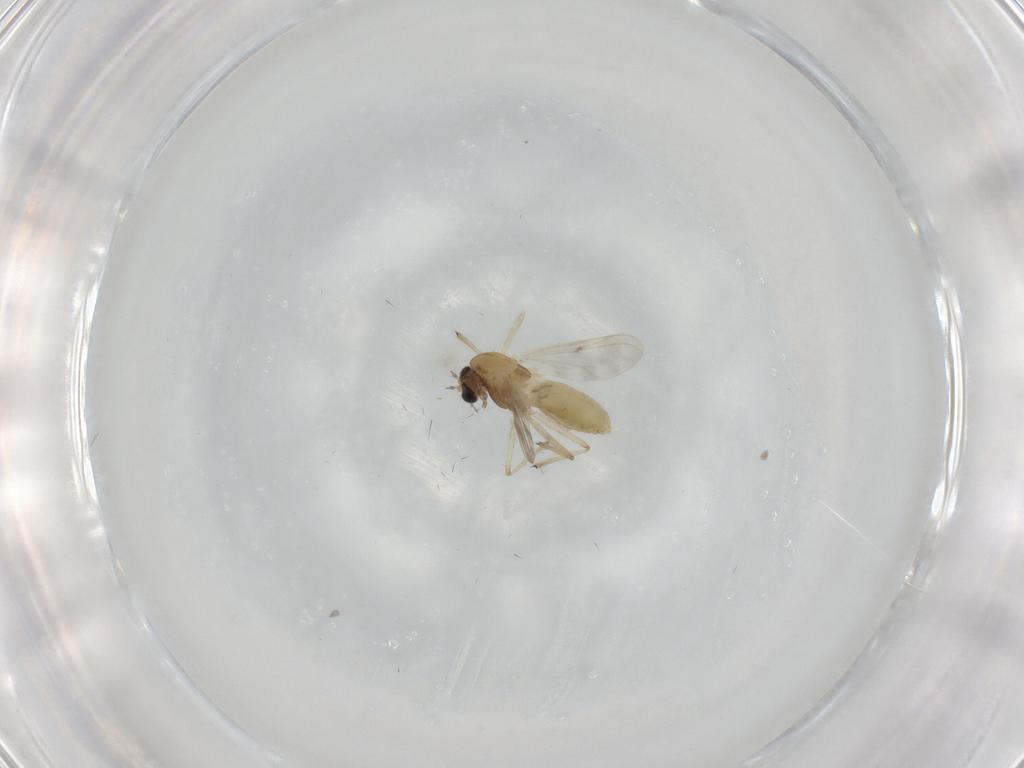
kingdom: Animalia
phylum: Arthropoda
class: Insecta
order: Diptera
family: Chironomidae
